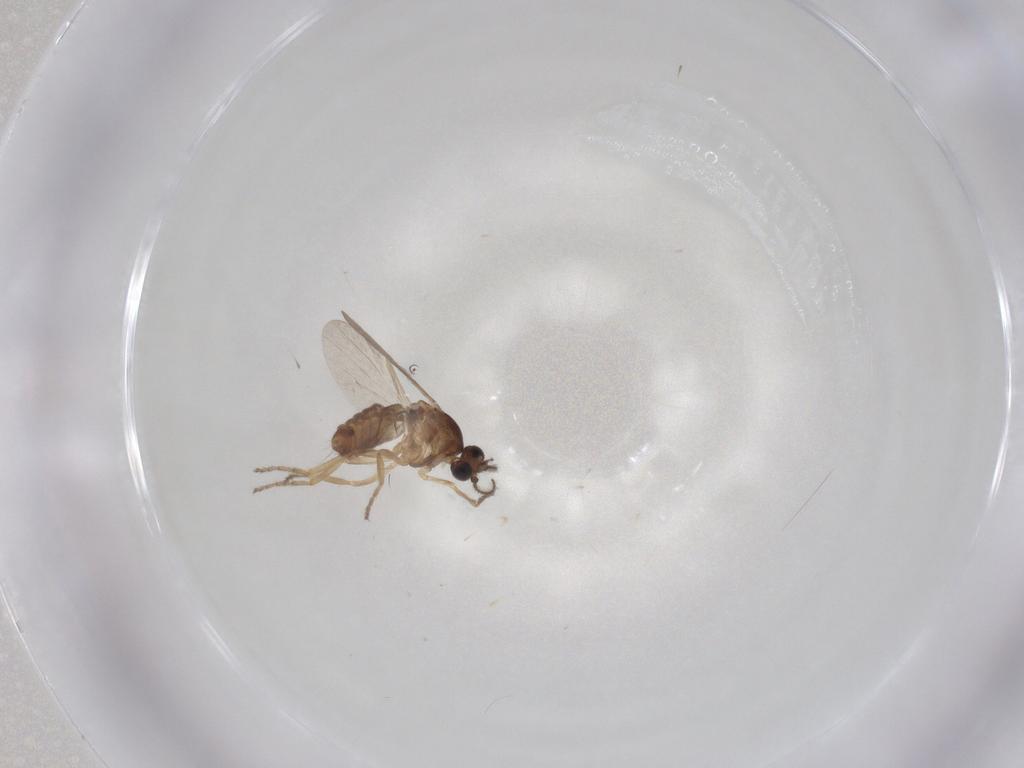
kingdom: Animalia
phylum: Arthropoda
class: Insecta
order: Diptera
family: Ceratopogonidae
